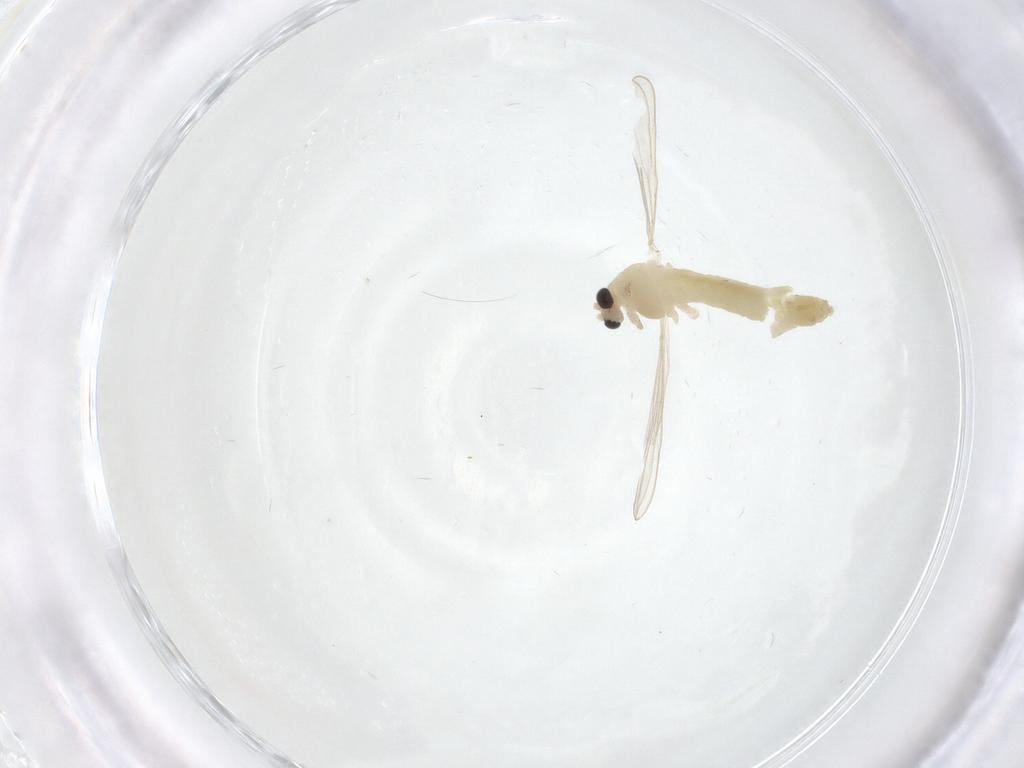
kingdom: Animalia
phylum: Arthropoda
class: Insecta
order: Diptera
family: Chironomidae
